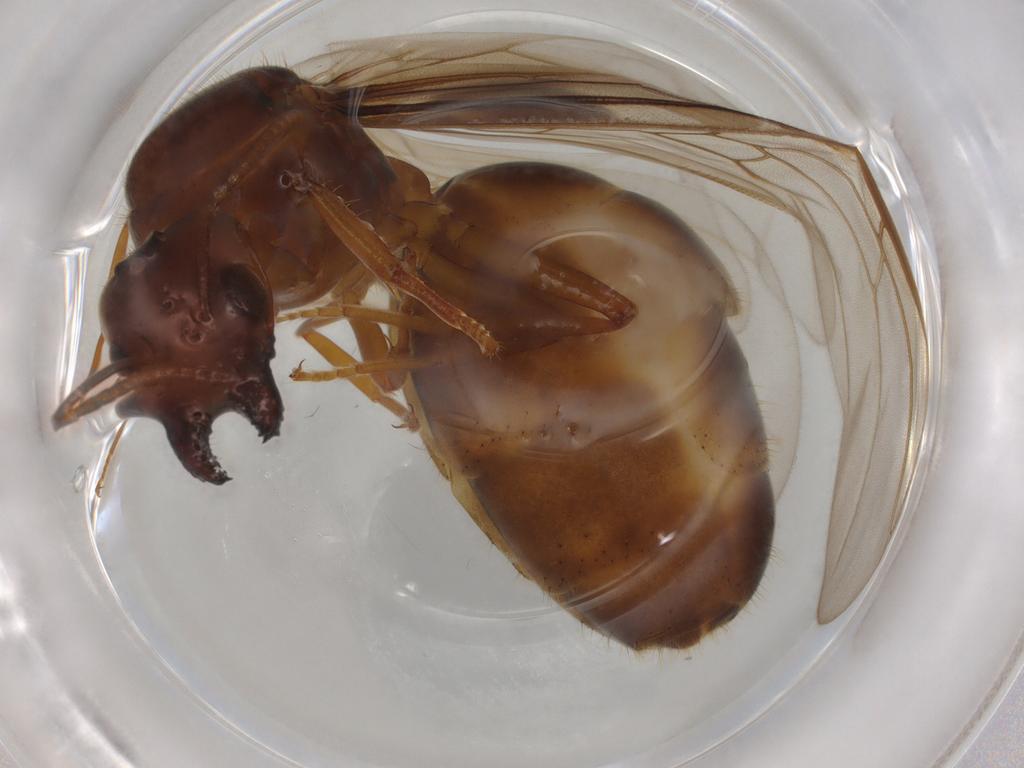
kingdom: Animalia
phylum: Arthropoda
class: Insecta
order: Hymenoptera
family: Formicidae
